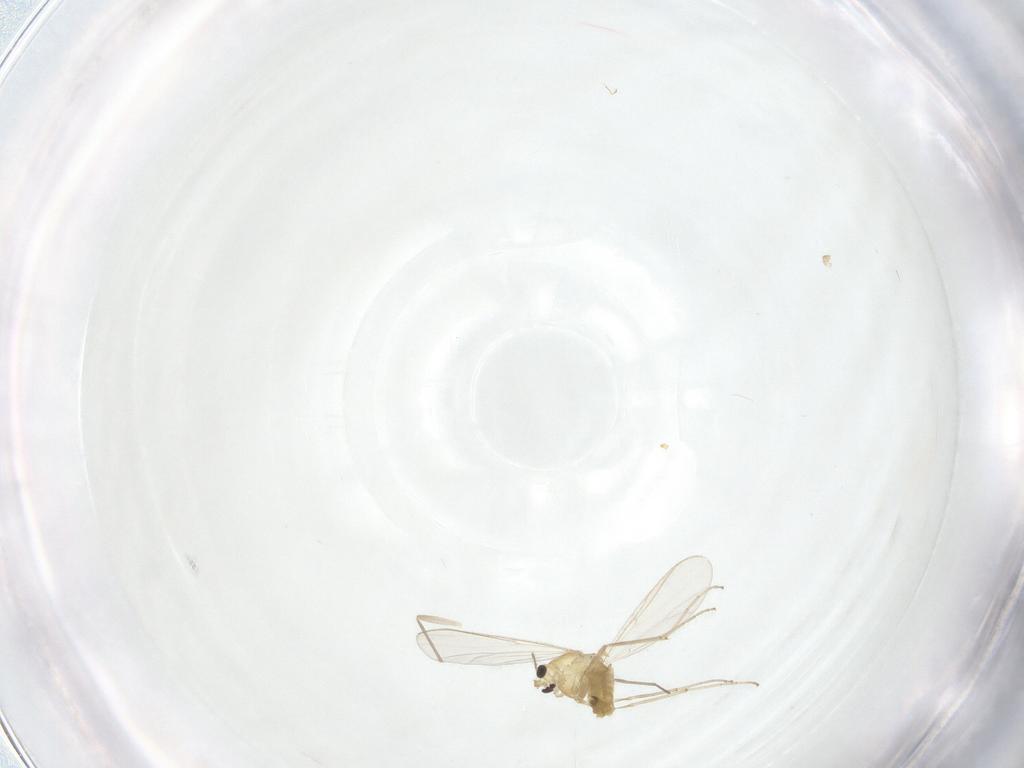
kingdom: Animalia
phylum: Arthropoda
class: Insecta
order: Diptera
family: Chironomidae
